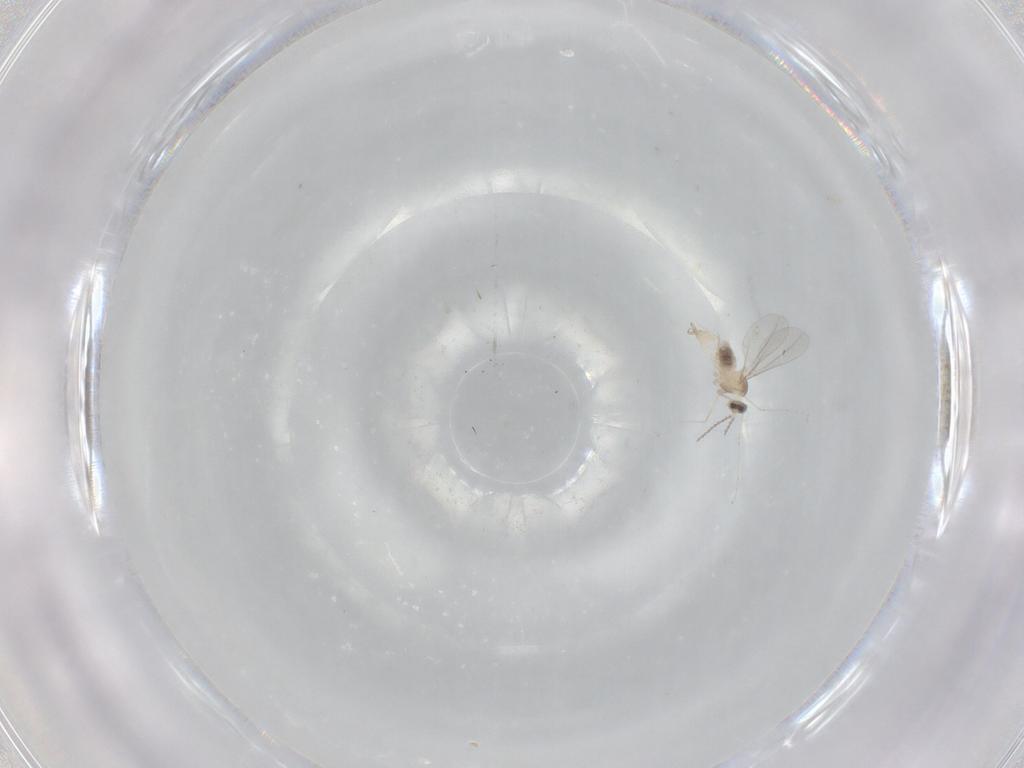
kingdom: Animalia
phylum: Arthropoda
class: Insecta
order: Diptera
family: Cecidomyiidae
